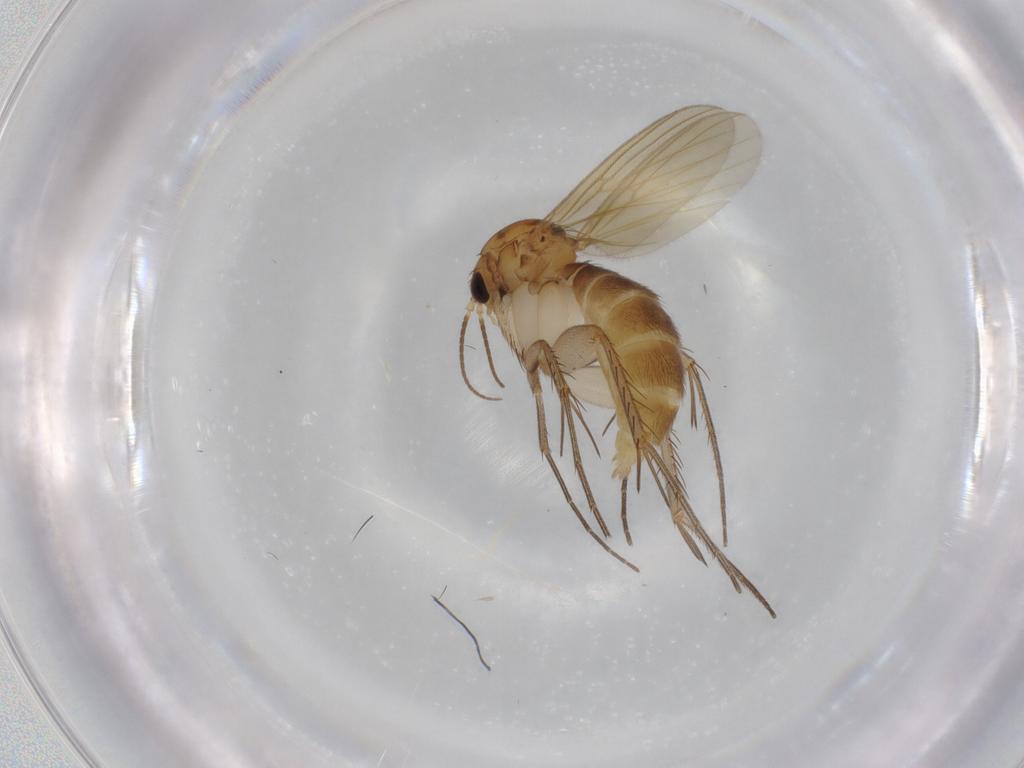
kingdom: Animalia
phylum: Arthropoda
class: Insecta
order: Diptera
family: Mycetophilidae
